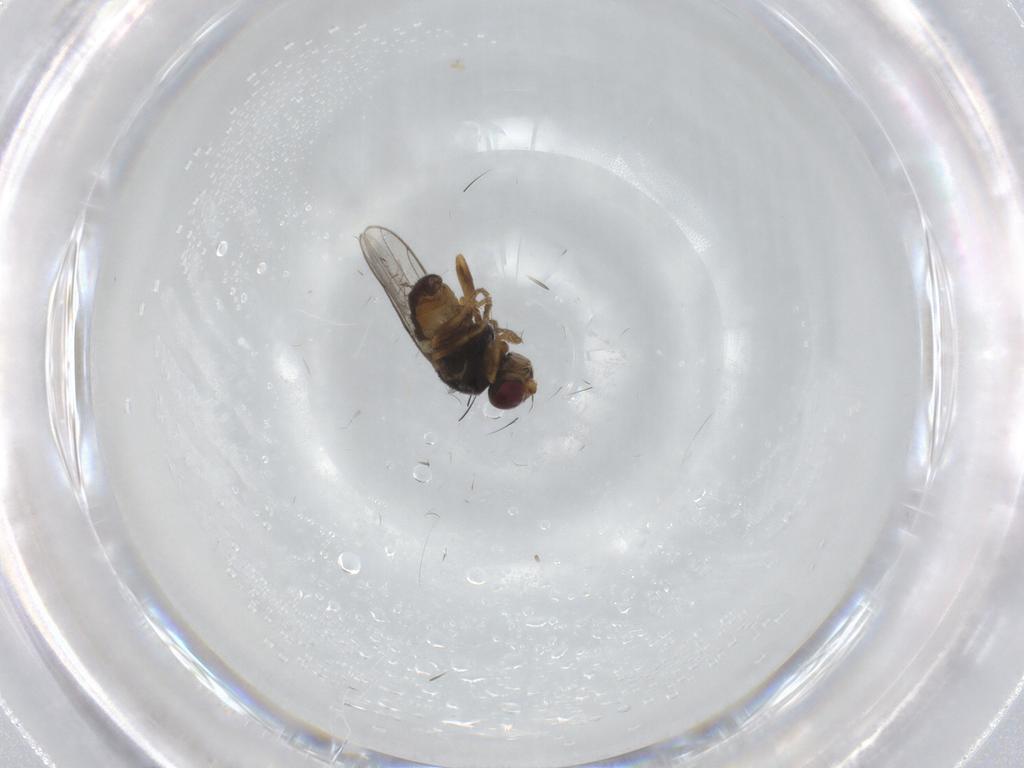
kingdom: Animalia
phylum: Arthropoda
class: Insecta
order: Diptera
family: Chloropidae
